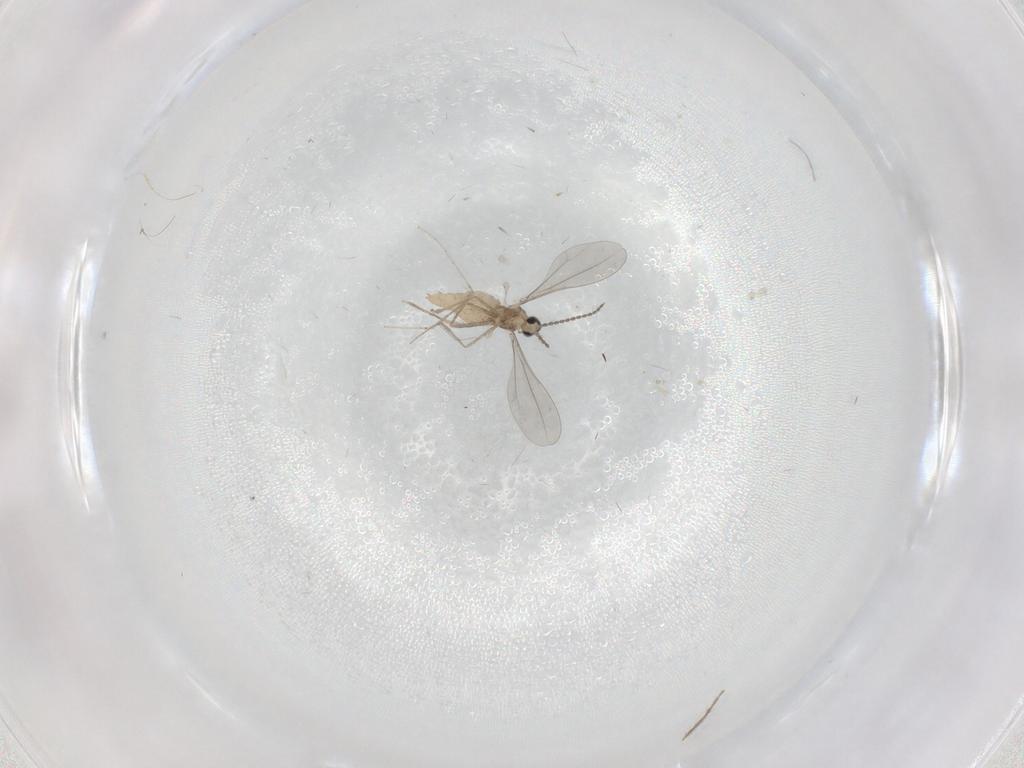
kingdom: Animalia
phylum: Arthropoda
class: Insecta
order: Diptera
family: Cecidomyiidae
